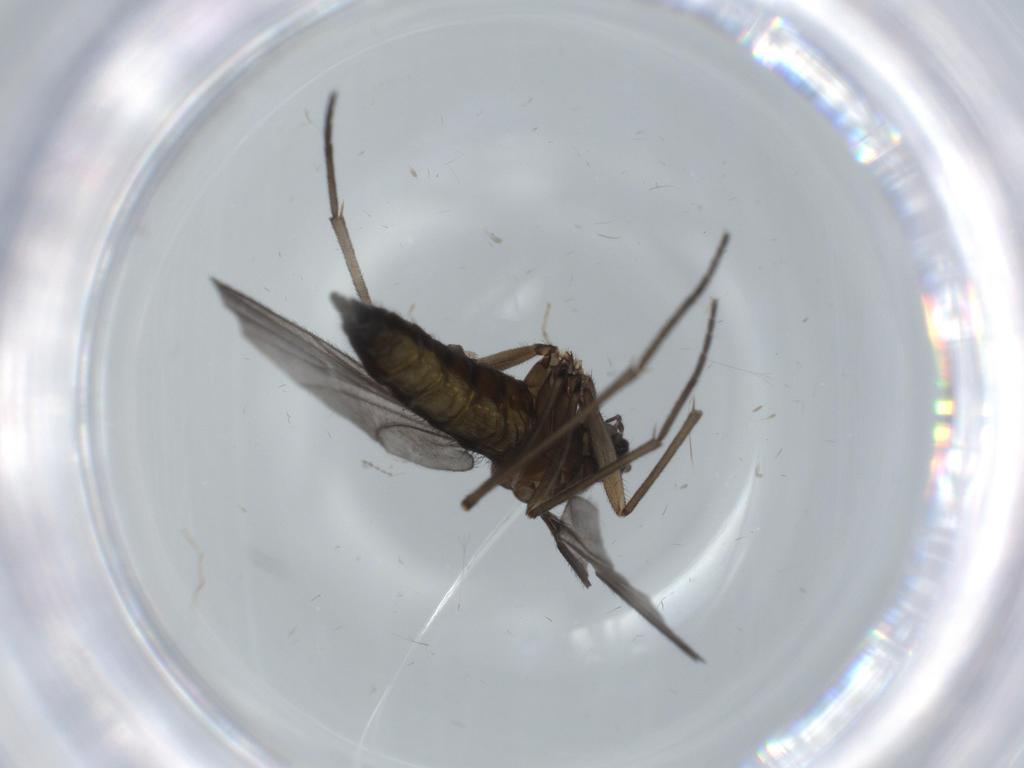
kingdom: Animalia
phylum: Arthropoda
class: Insecta
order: Diptera
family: Sciaridae
